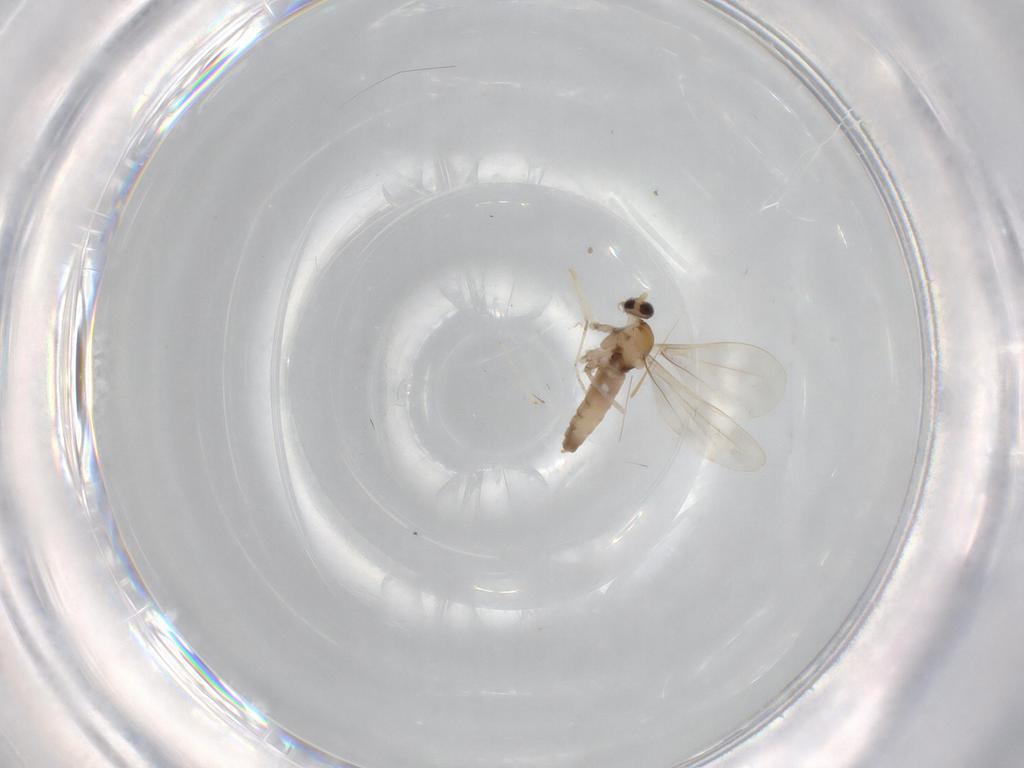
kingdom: Animalia
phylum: Arthropoda
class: Insecta
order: Diptera
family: Cecidomyiidae
